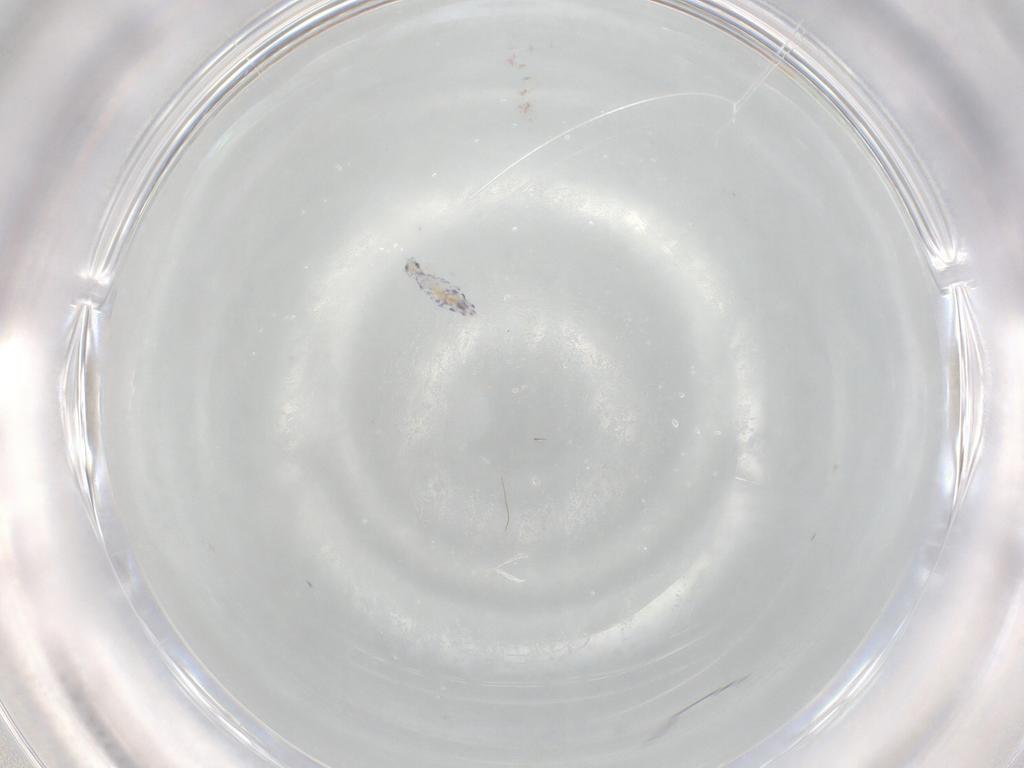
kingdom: Animalia
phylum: Arthropoda
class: Collembola
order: Entomobryomorpha
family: Entomobryidae
